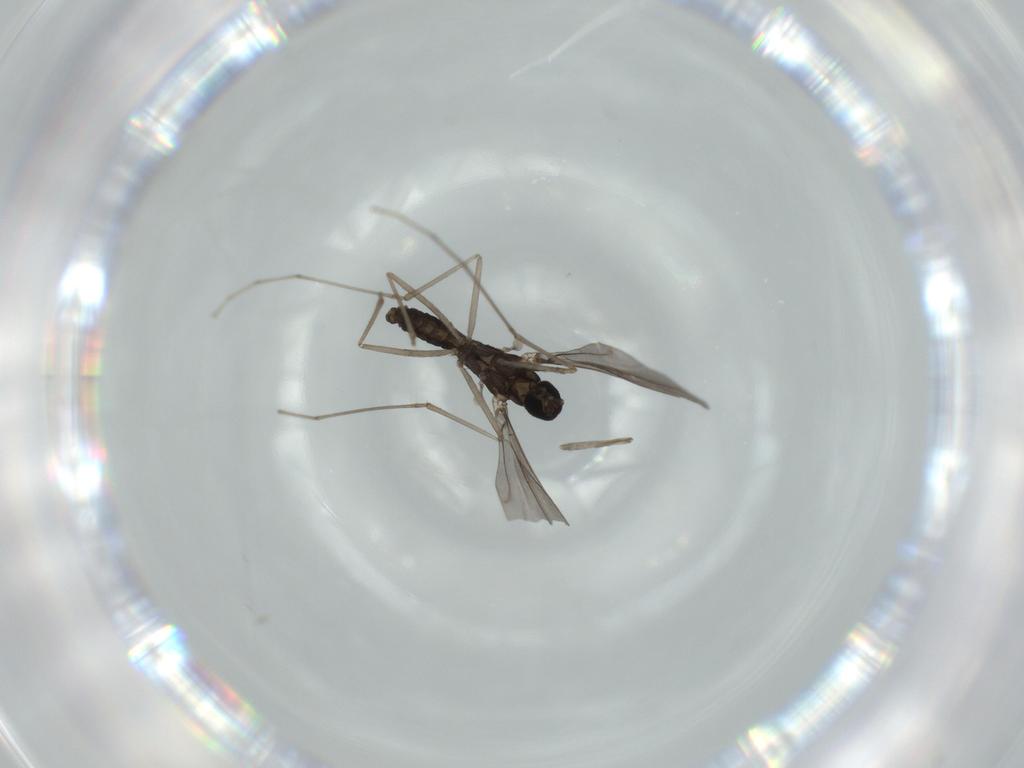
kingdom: Animalia
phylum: Arthropoda
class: Insecta
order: Diptera
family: Cecidomyiidae
